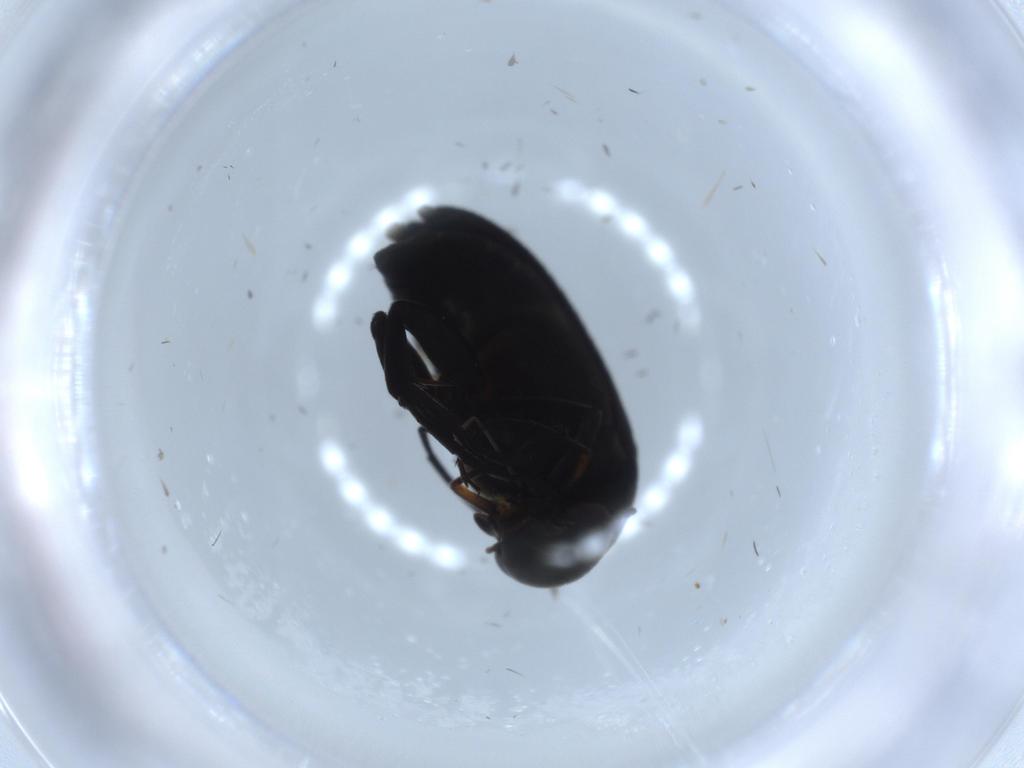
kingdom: Animalia
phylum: Arthropoda
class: Insecta
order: Coleoptera
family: Mordellidae
